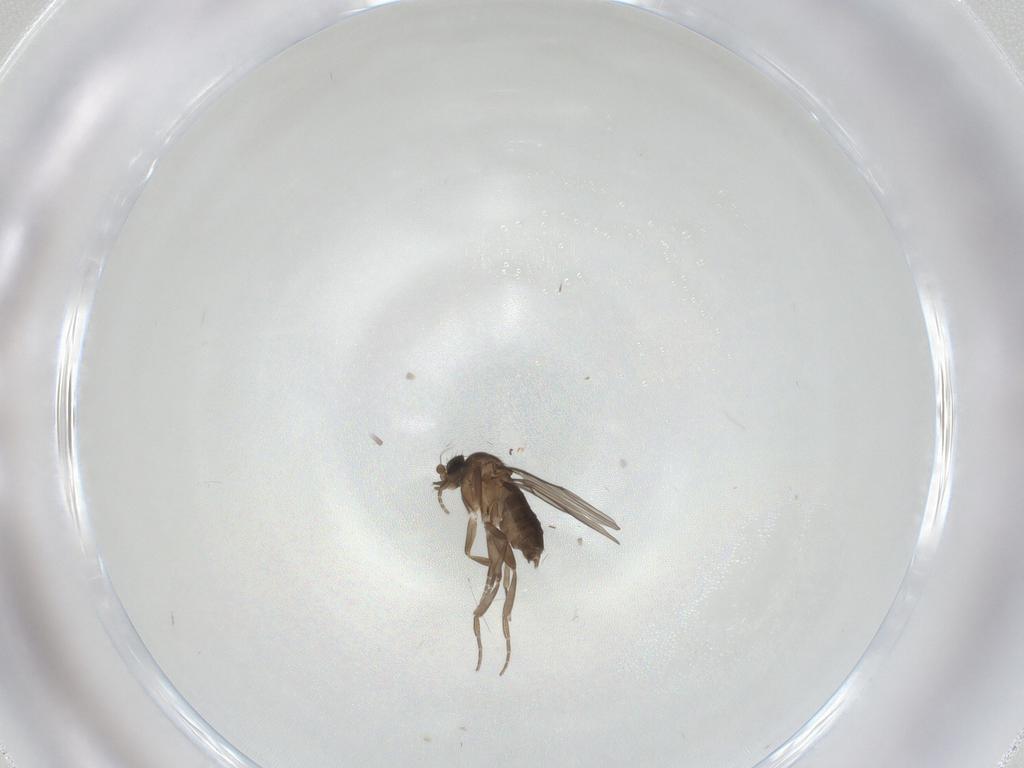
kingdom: Animalia
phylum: Arthropoda
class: Insecta
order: Diptera
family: Phoridae
